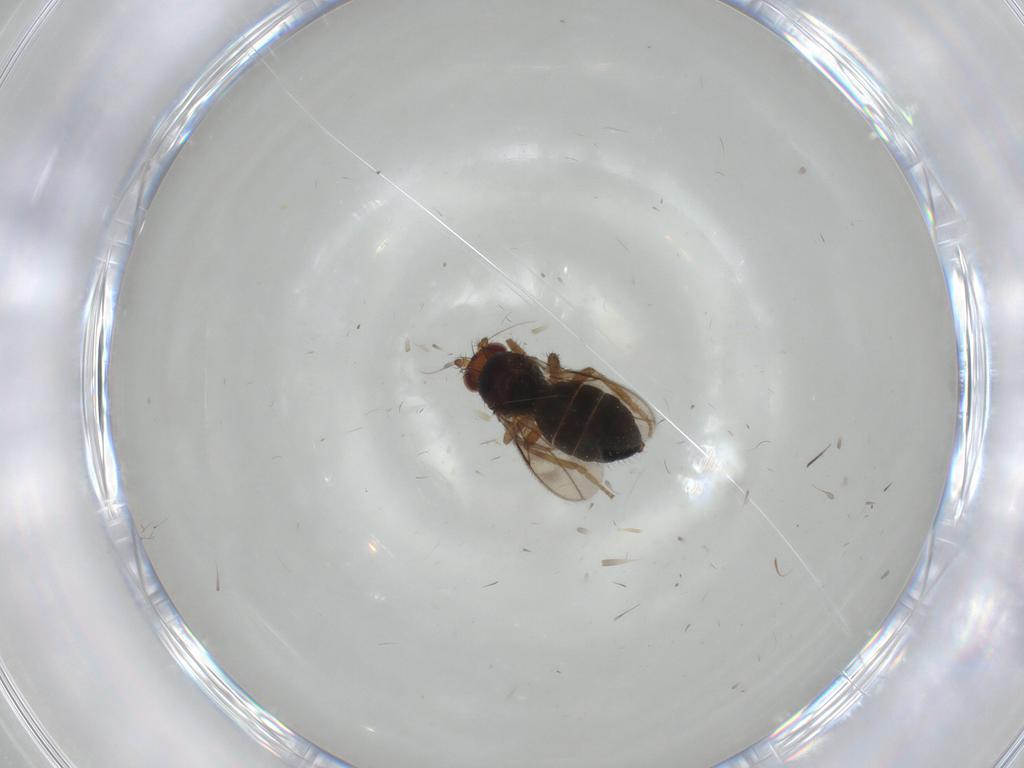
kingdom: Animalia
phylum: Arthropoda
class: Insecta
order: Diptera
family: Sphaeroceridae
